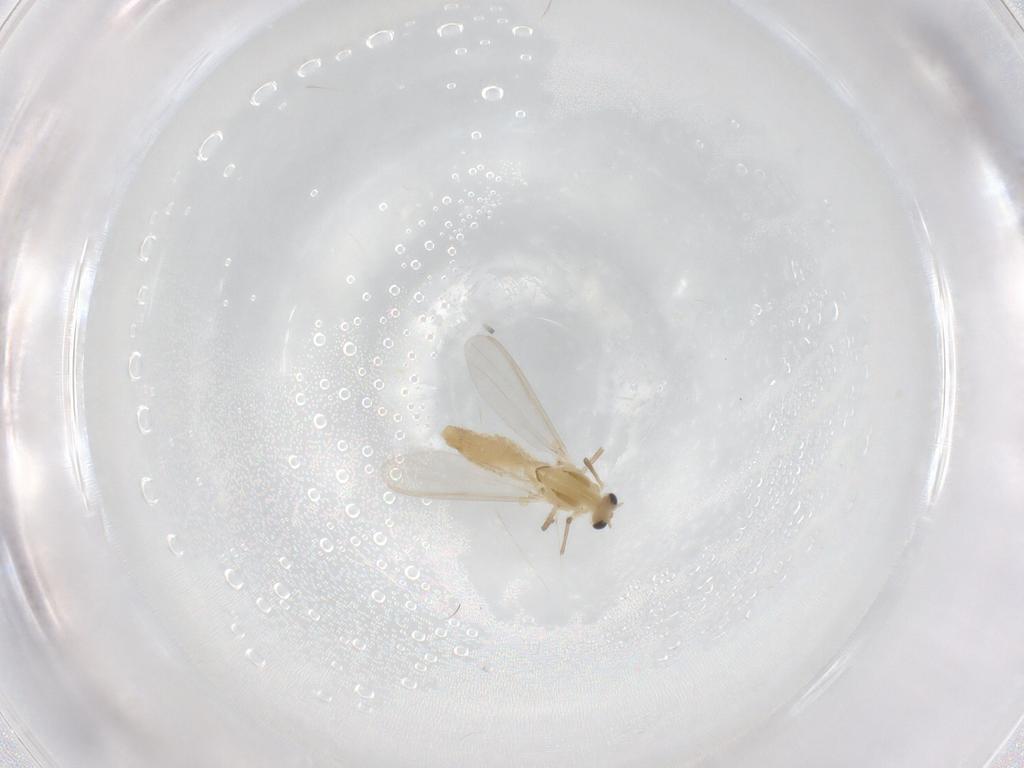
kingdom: Animalia
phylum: Arthropoda
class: Insecta
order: Diptera
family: Chironomidae
